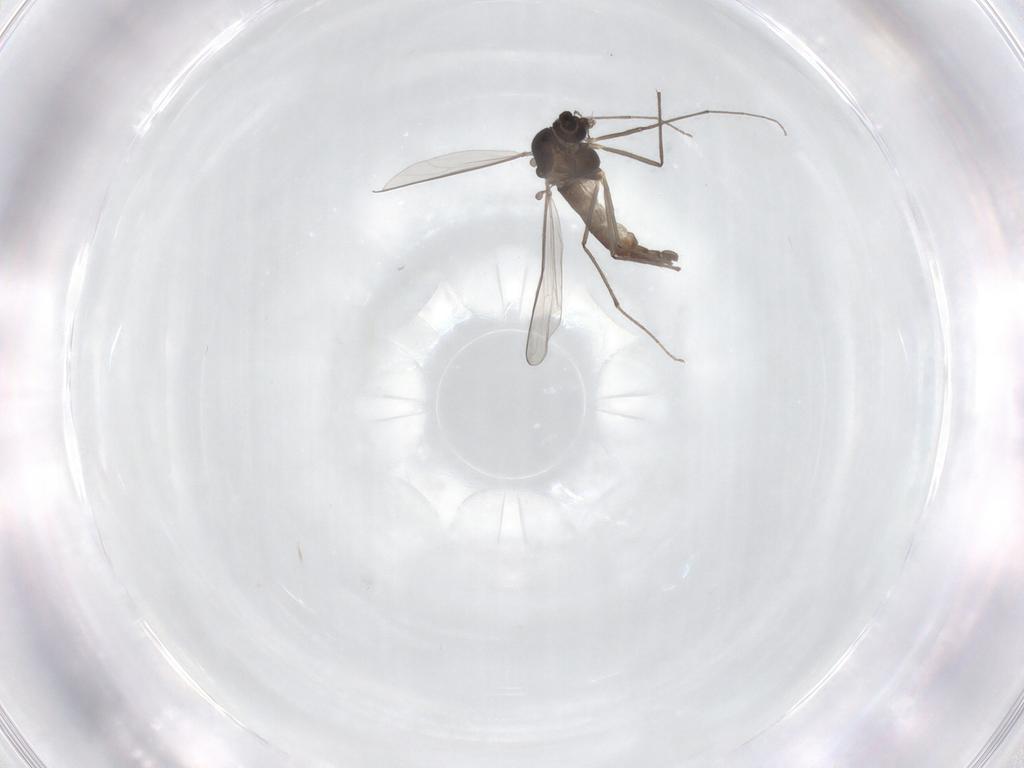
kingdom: Animalia
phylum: Arthropoda
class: Insecta
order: Diptera
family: Chironomidae
